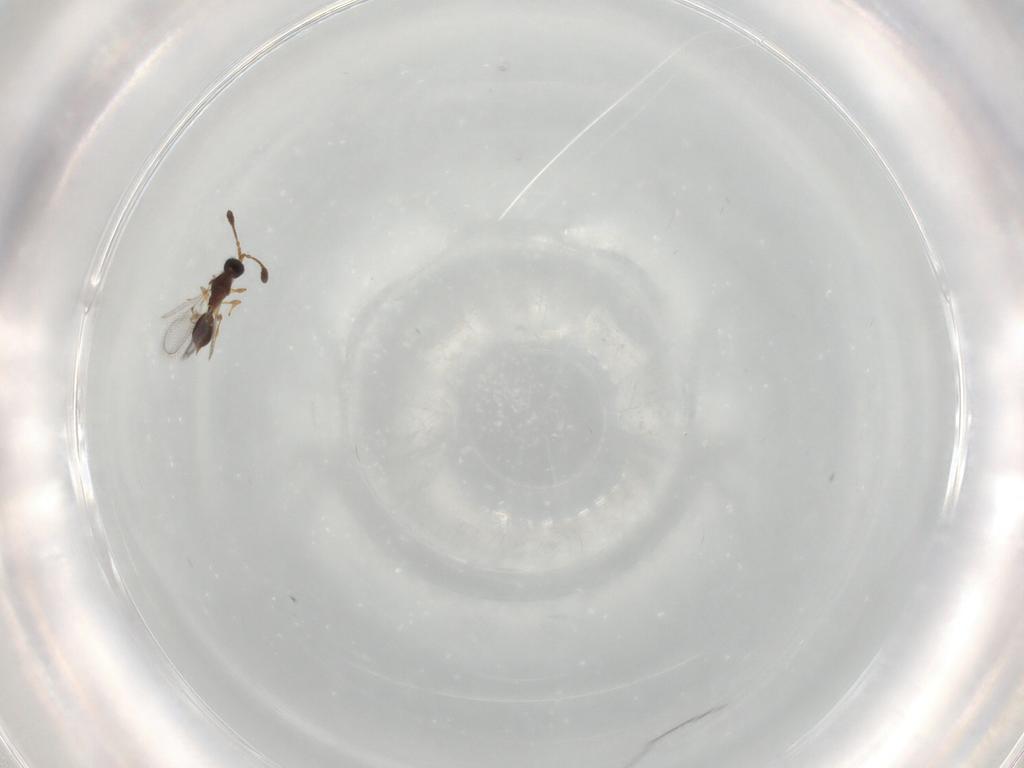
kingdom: Animalia
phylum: Arthropoda
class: Insecta
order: Hymenoptera
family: Diapriidae
